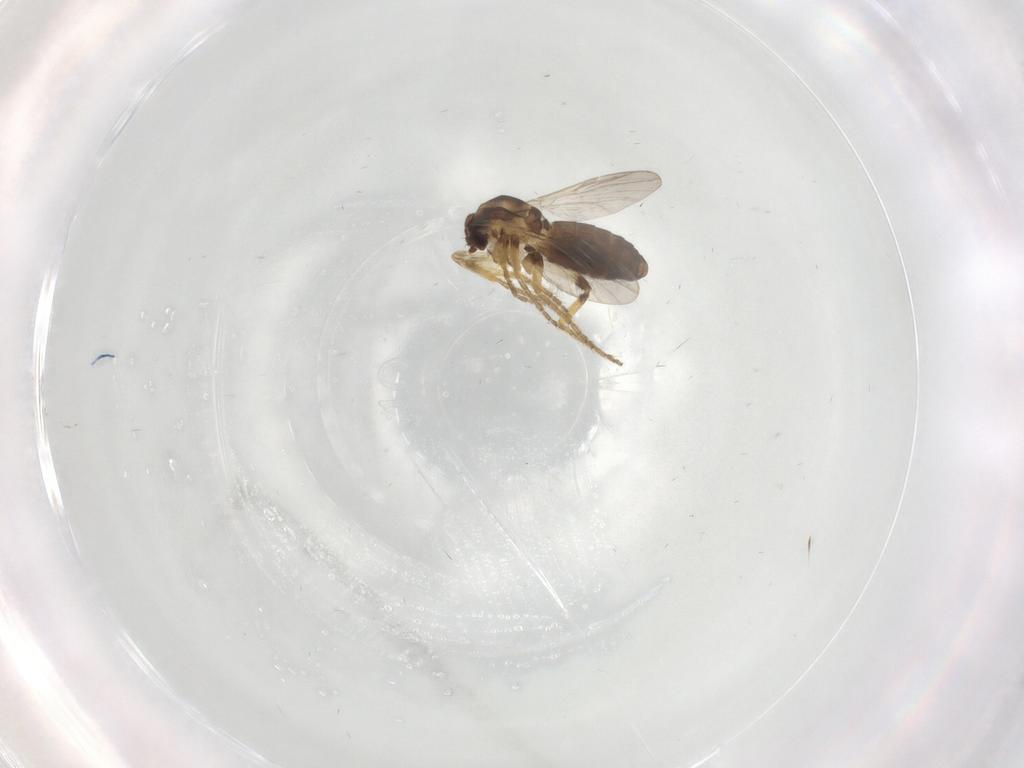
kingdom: Animalia
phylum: Arthropoda
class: Insecta
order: Diptera
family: Ceratopogonidae
